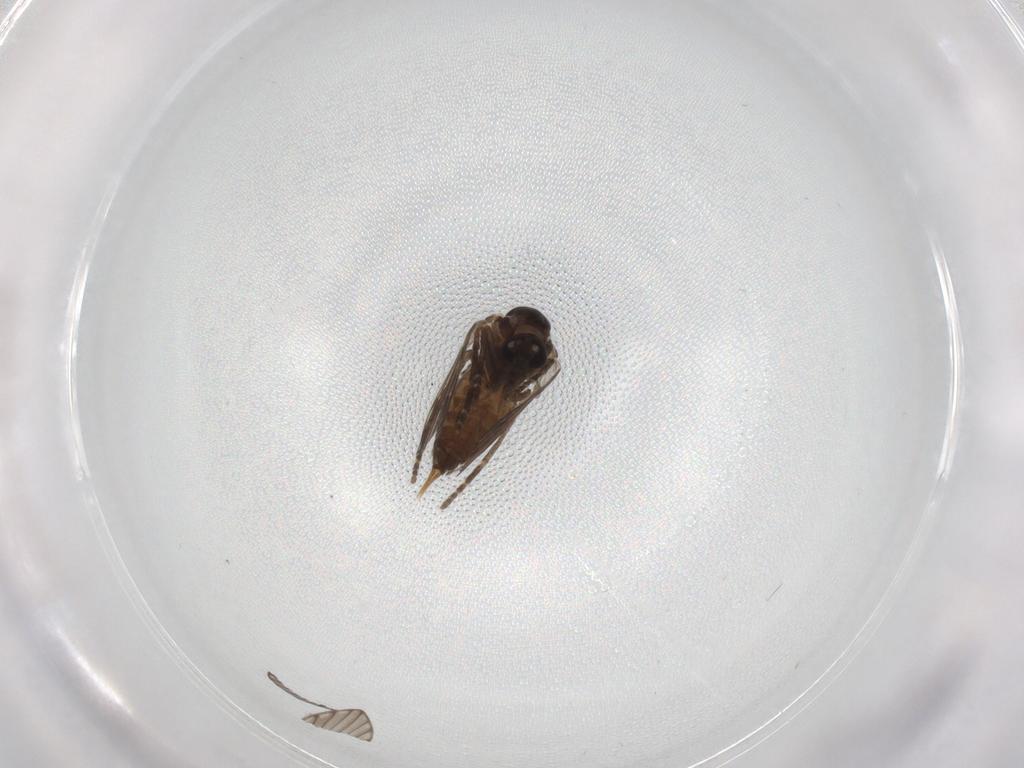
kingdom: Animalia
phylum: Arthropoda
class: Insecta
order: Diptera
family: Psychodidae
